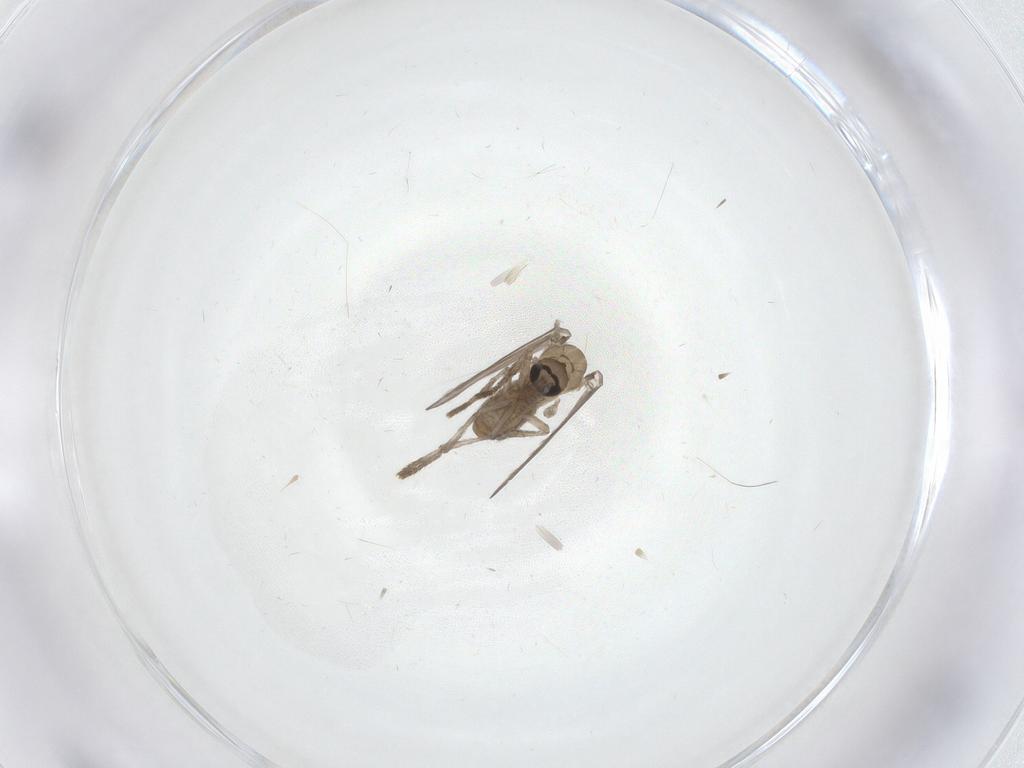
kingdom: Animalia
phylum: Arthropoda
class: Insecta
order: Diptera
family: Psychodidae
